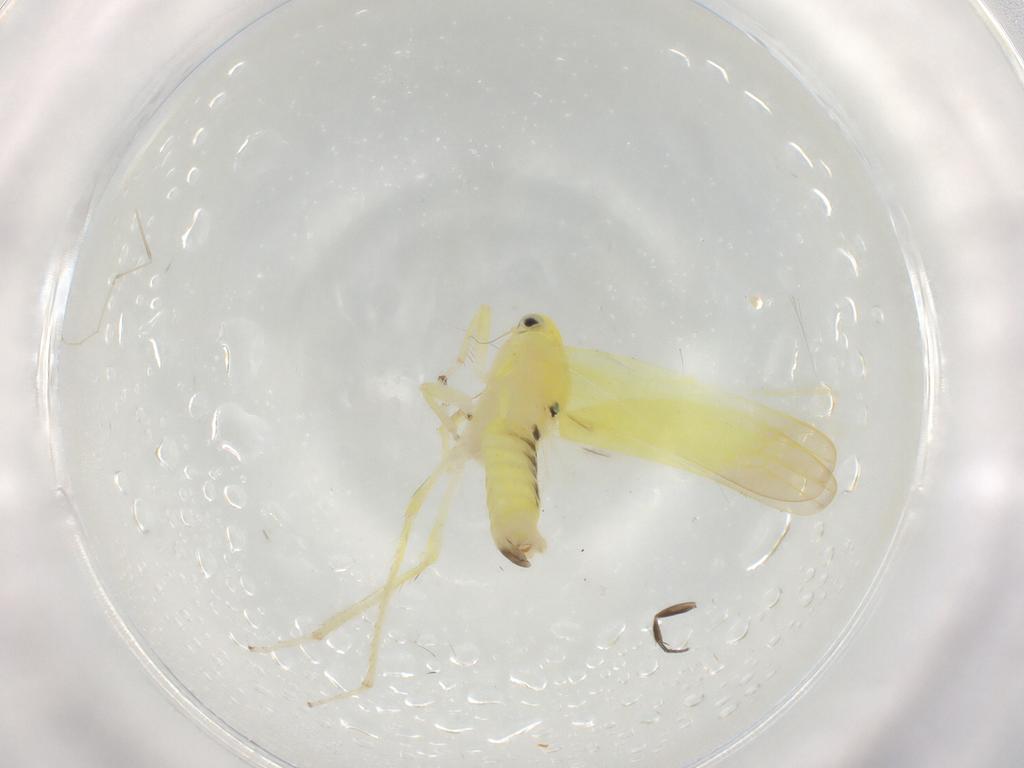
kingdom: Animalia
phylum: Arthropoda
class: Insecta
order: Hemiptera
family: Cicadellidae
